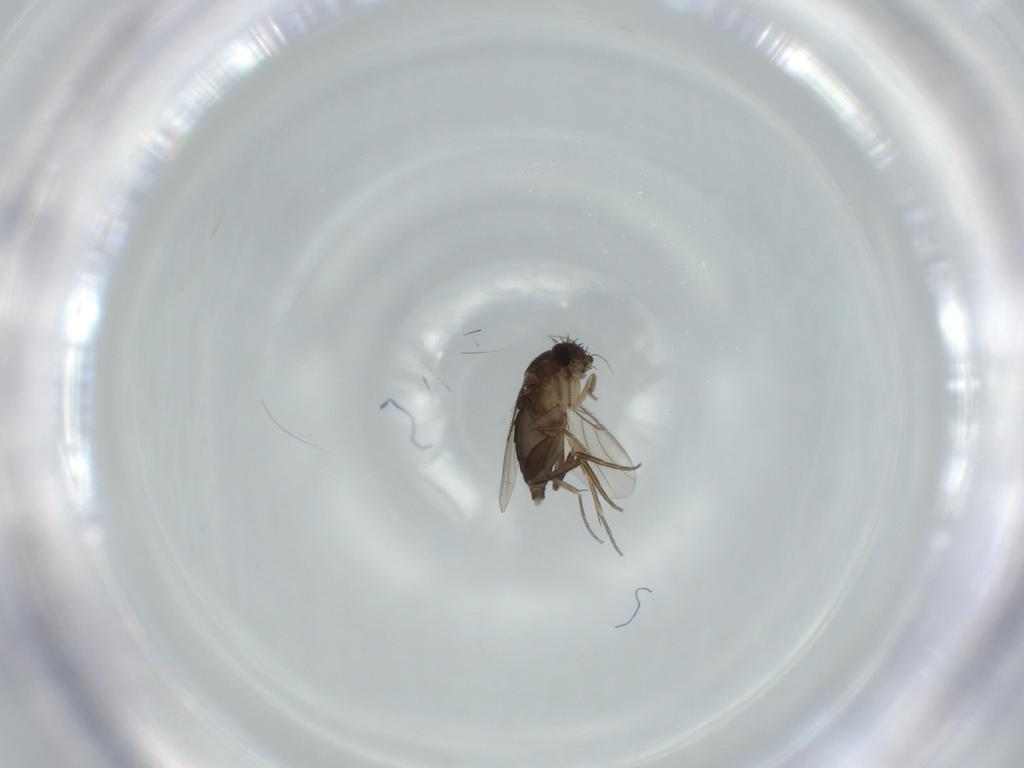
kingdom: Animalia
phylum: Arthropoda
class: Insecta
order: Diptera
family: Phoridae
